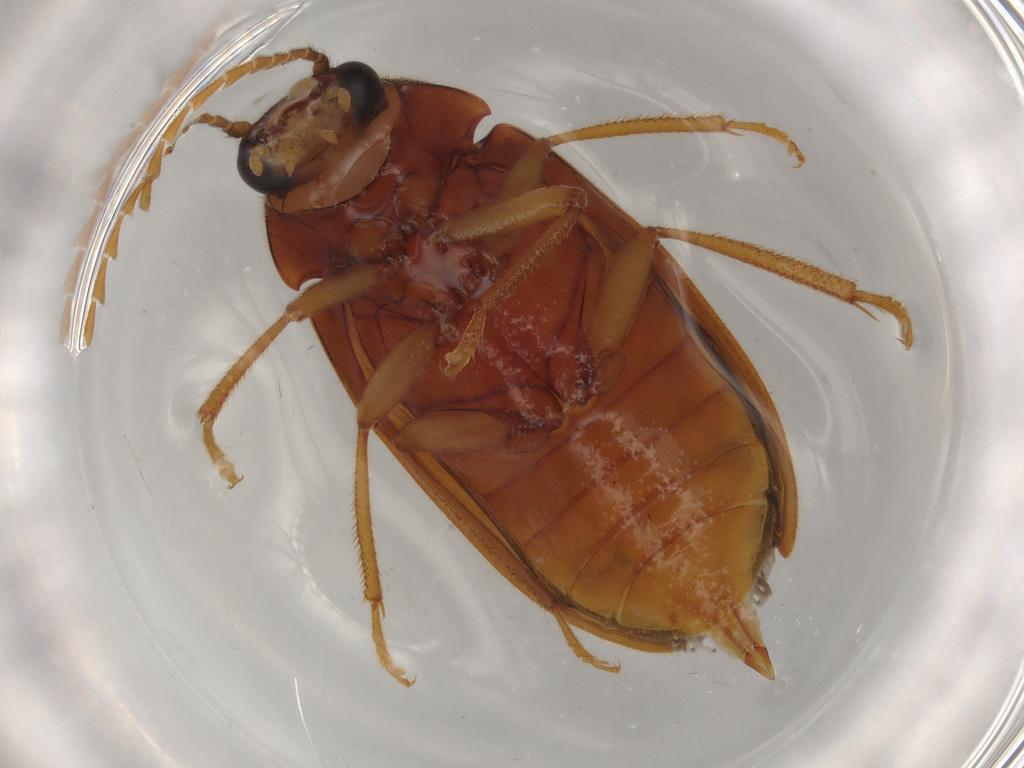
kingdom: Animalia
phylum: Arthropoda
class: Insecta
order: Coleoptera
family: Ptilodactylidae
